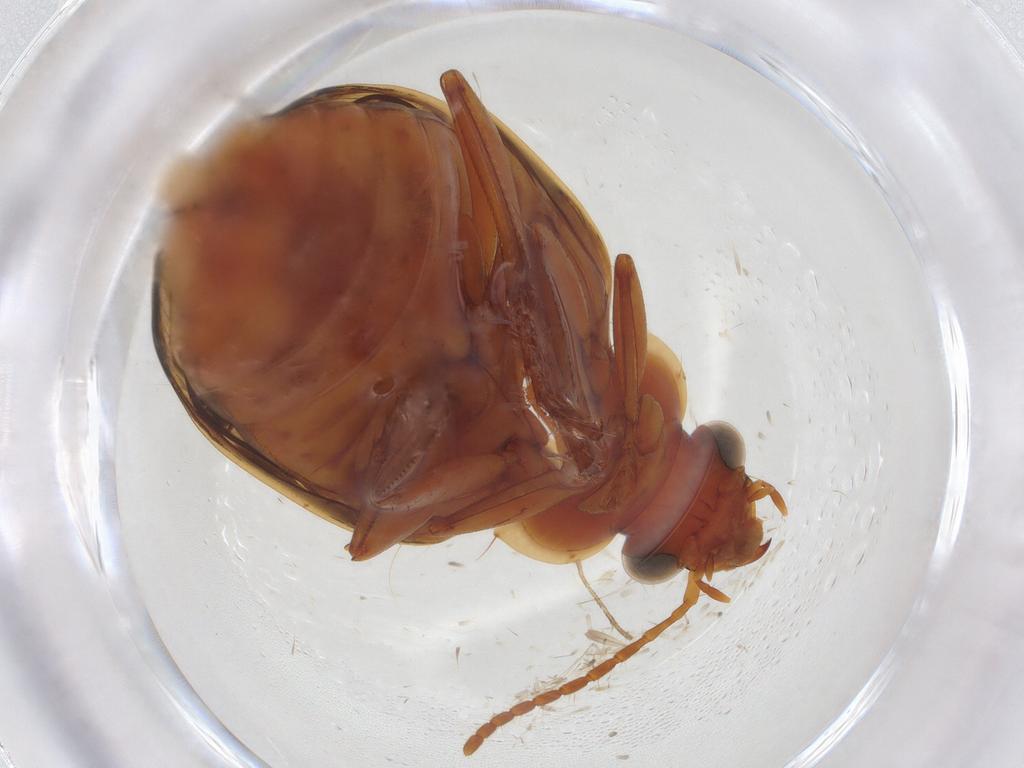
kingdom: Animalia
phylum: Arthropoda
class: Insecta
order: Coleoptera
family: Carabidae
